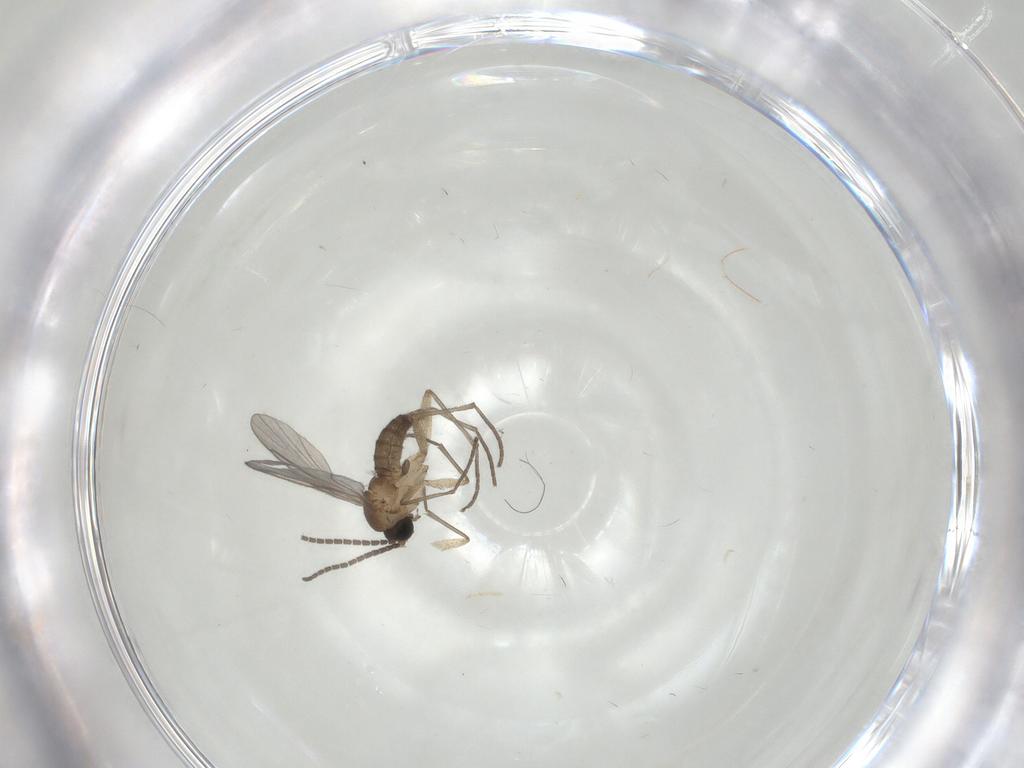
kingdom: Animalia
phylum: Arthropoda
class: Insecta
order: Diptera
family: Sciaridae
